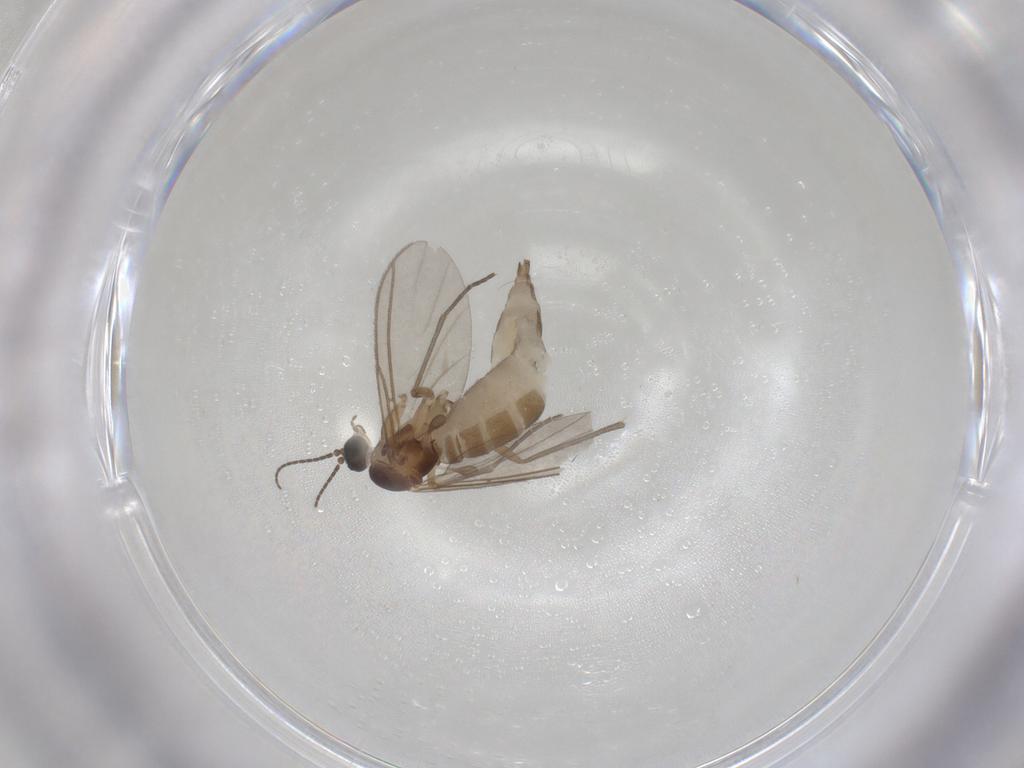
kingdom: Animalia
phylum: Arthropoda
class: Insecta
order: Diptera
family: Sciaridae
